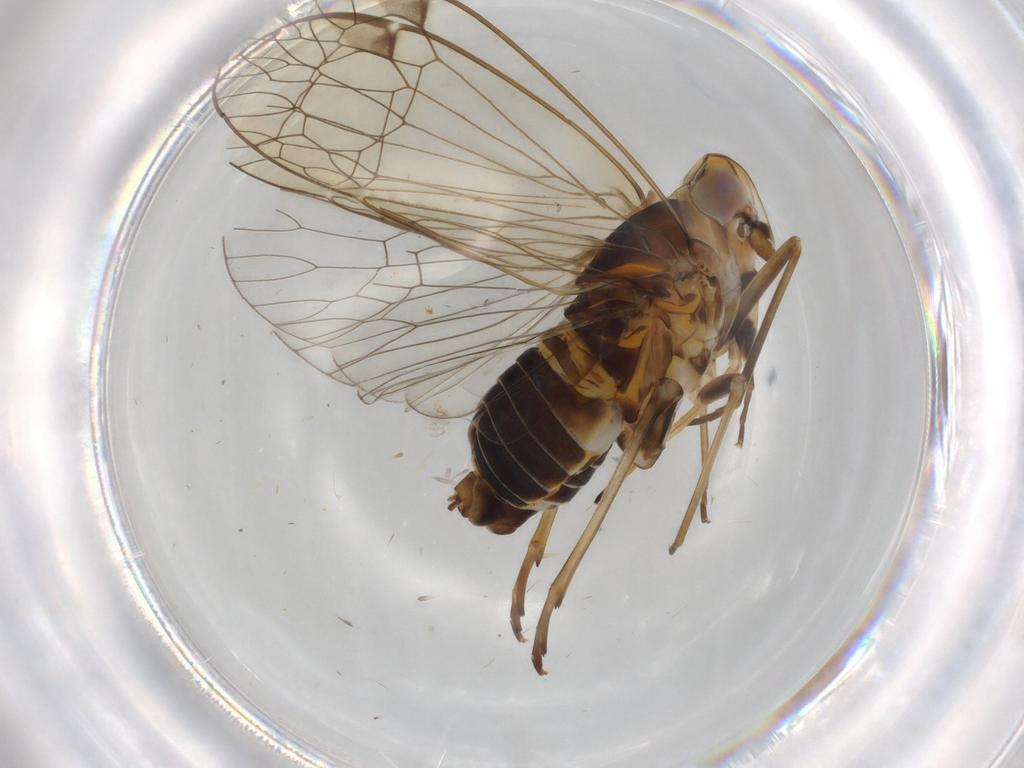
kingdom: Animalia
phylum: Arthropoda
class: Insecta
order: Hemiptera
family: Kinnaridae
